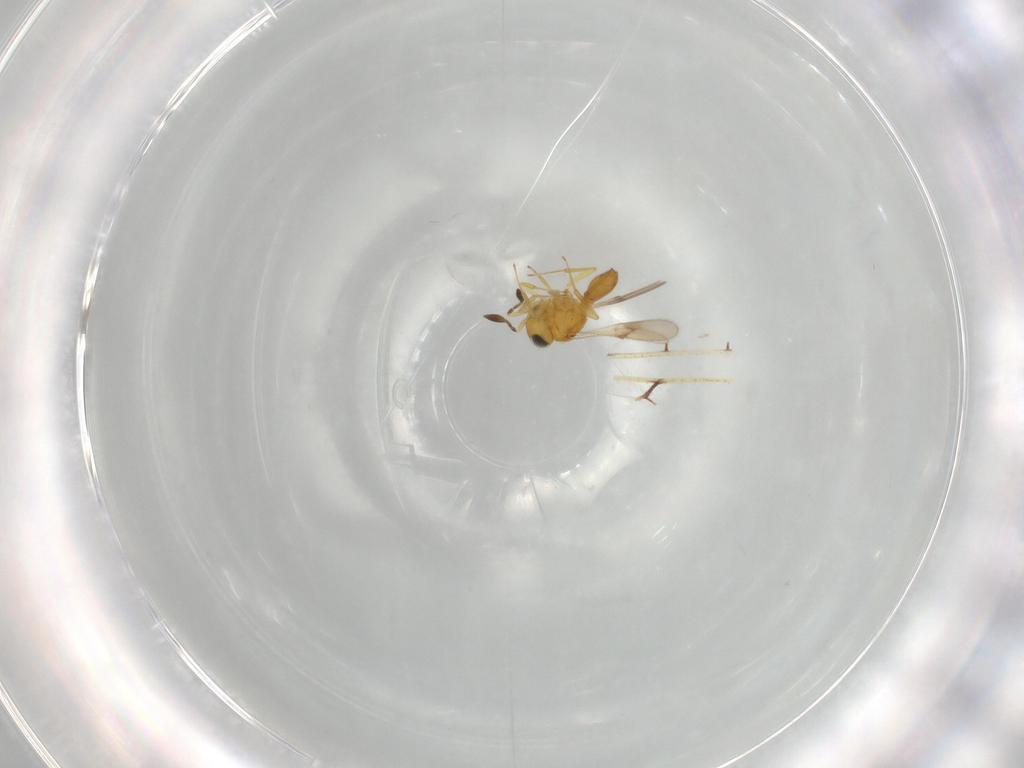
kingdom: Animalia
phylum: Arthropoda
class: Insecta
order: Hymenoptera
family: Scelionidae
